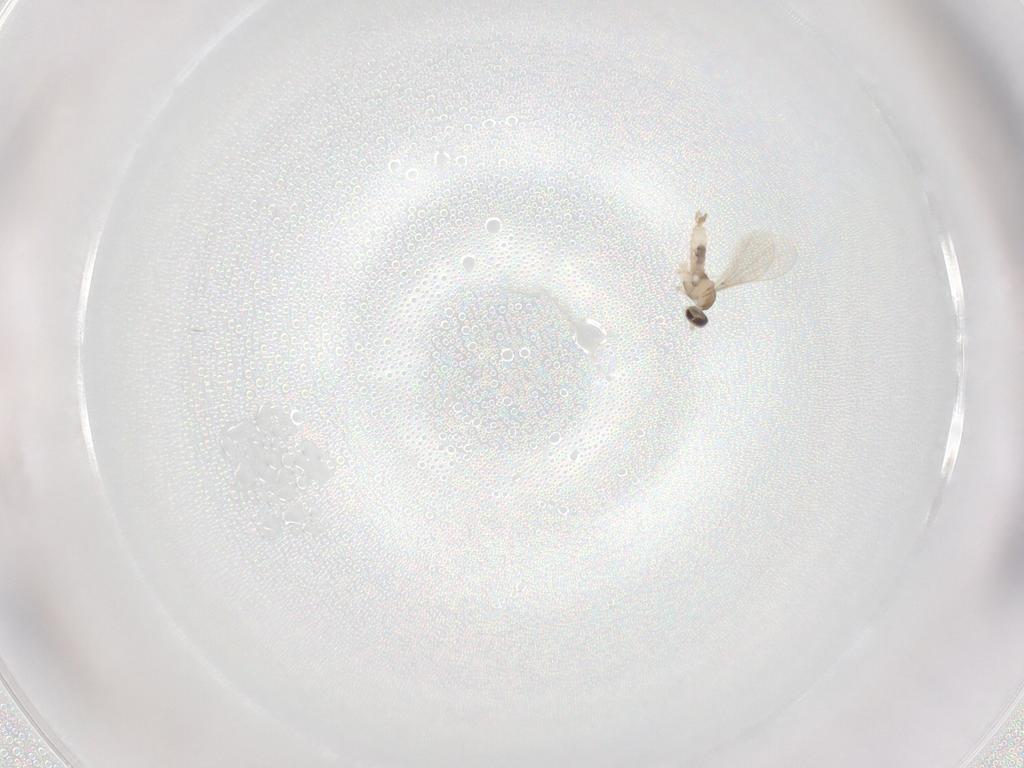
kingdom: Animalia
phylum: Arthropoda
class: Insecta
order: Diptera
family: Cecidomyiidae
